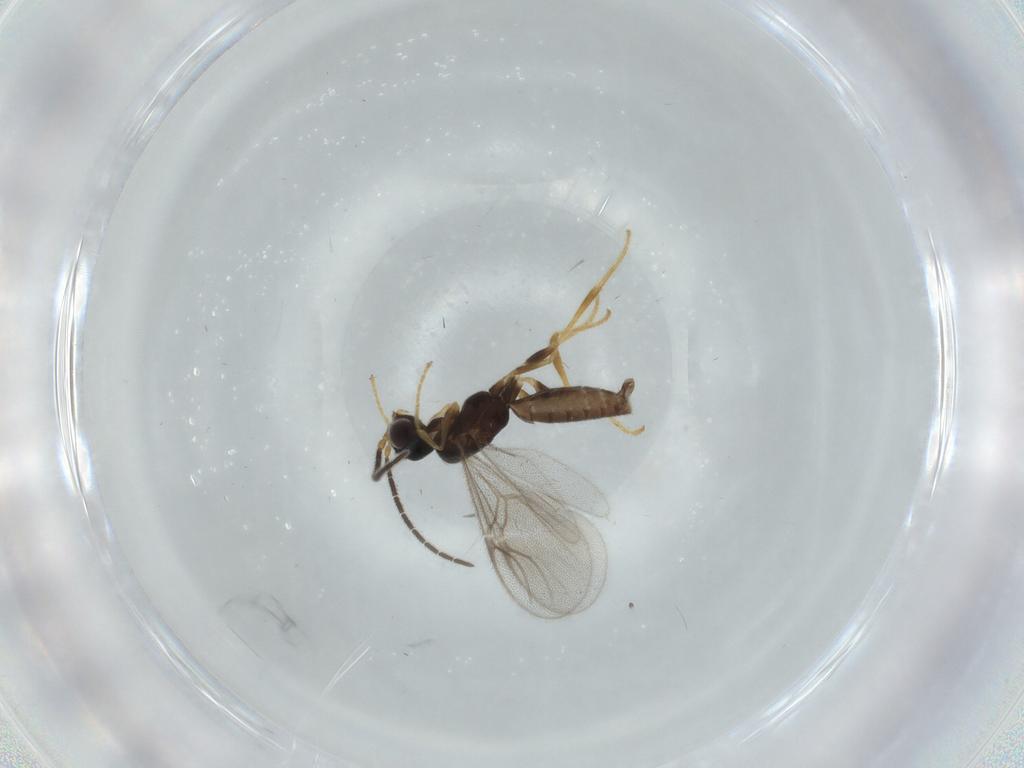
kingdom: Animalia
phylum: Arthropoda
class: Insecta
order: Hymenoptera
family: Dryinidae
